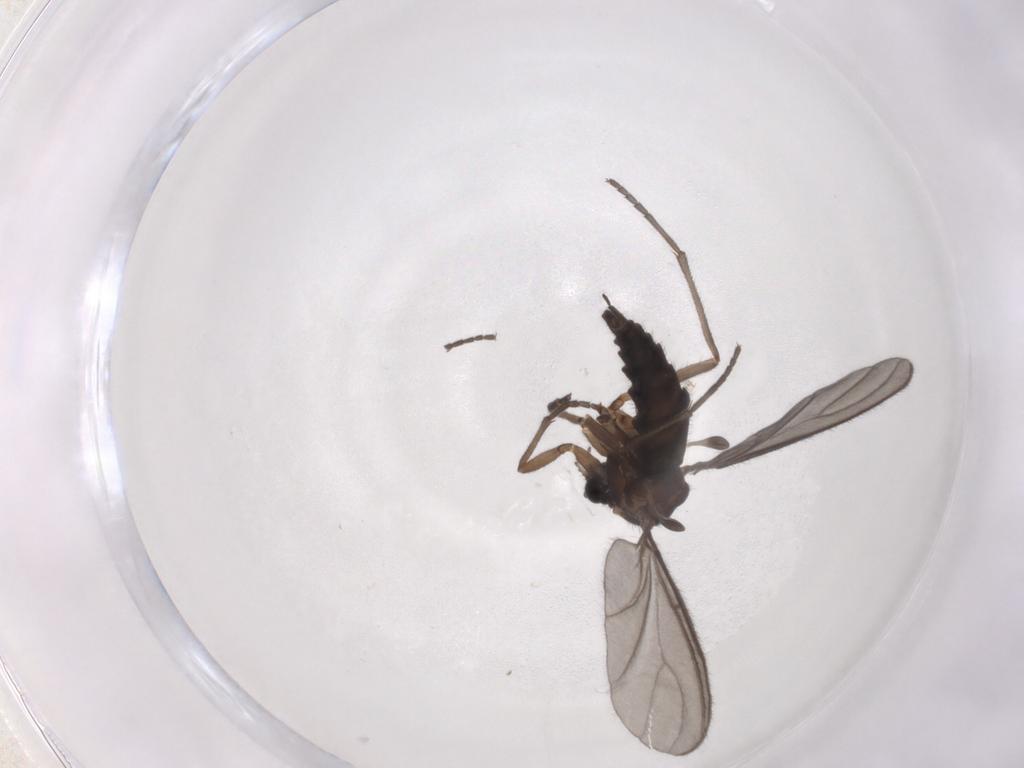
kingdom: Animalia
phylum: Arthropoda
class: Insecta
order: Diptera
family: Sciaridae
